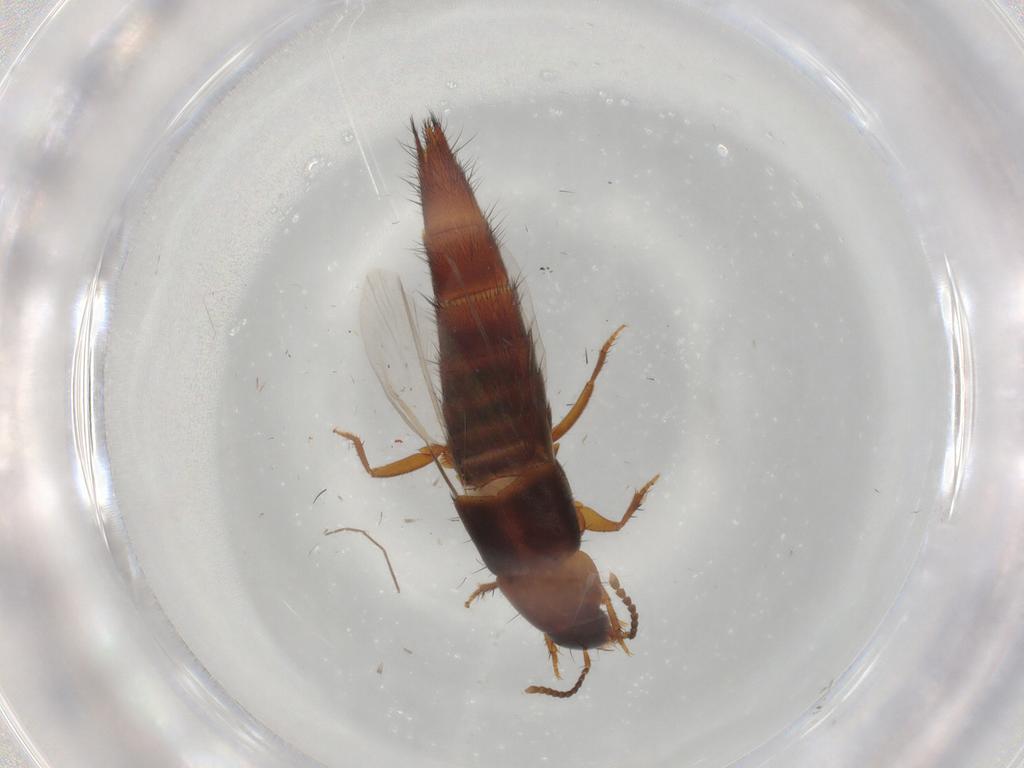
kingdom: Animalia
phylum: Arthropoda
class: Insecta
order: Coleoptera
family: Staphylinidae
